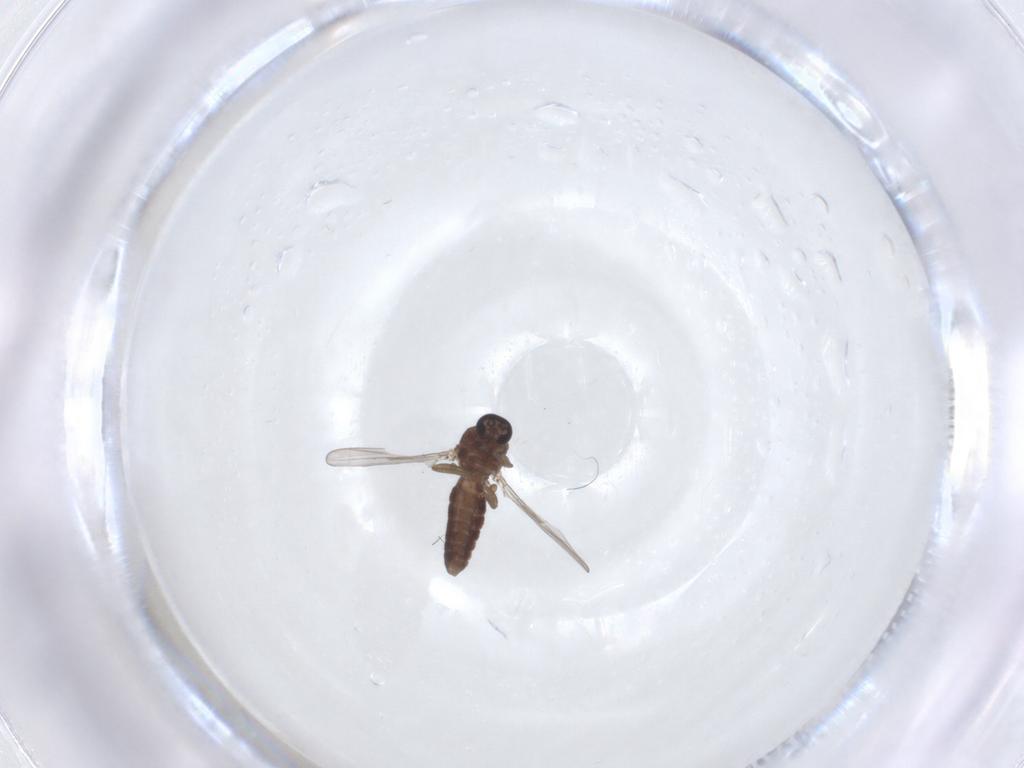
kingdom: Animalia
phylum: Arthropoda
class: Insecta
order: Diptera
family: Ceratopogonidae
